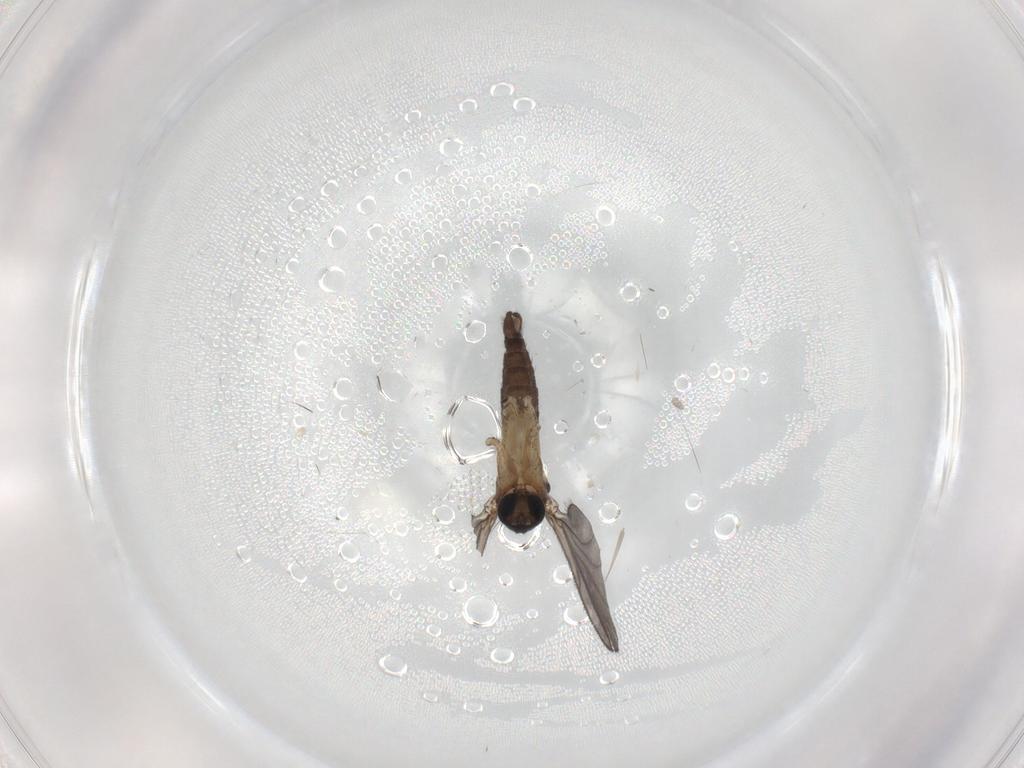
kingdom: Animalia
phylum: Arthropoda
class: Insecta
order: Diptera
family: Sciaridae
